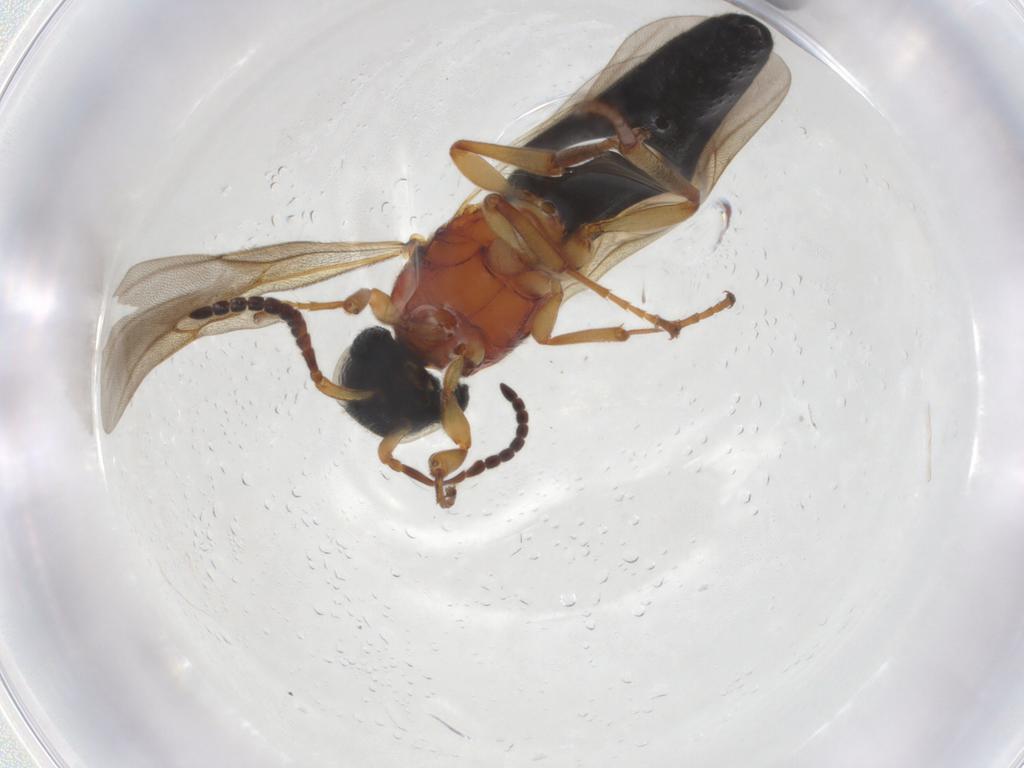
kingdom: Animalia
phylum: Arthropoda
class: Insecta
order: Hymenoptera
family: Scelionidae
